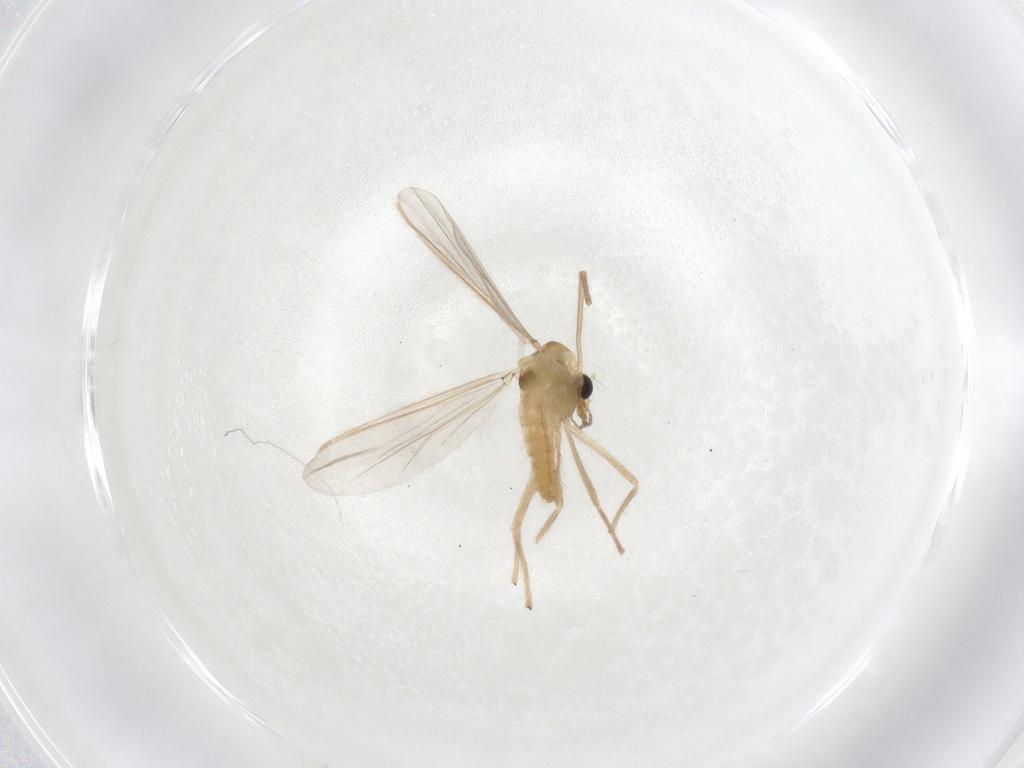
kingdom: Animalia
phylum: Arthropoda
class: Insecta
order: Diptera
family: Chironomidae
